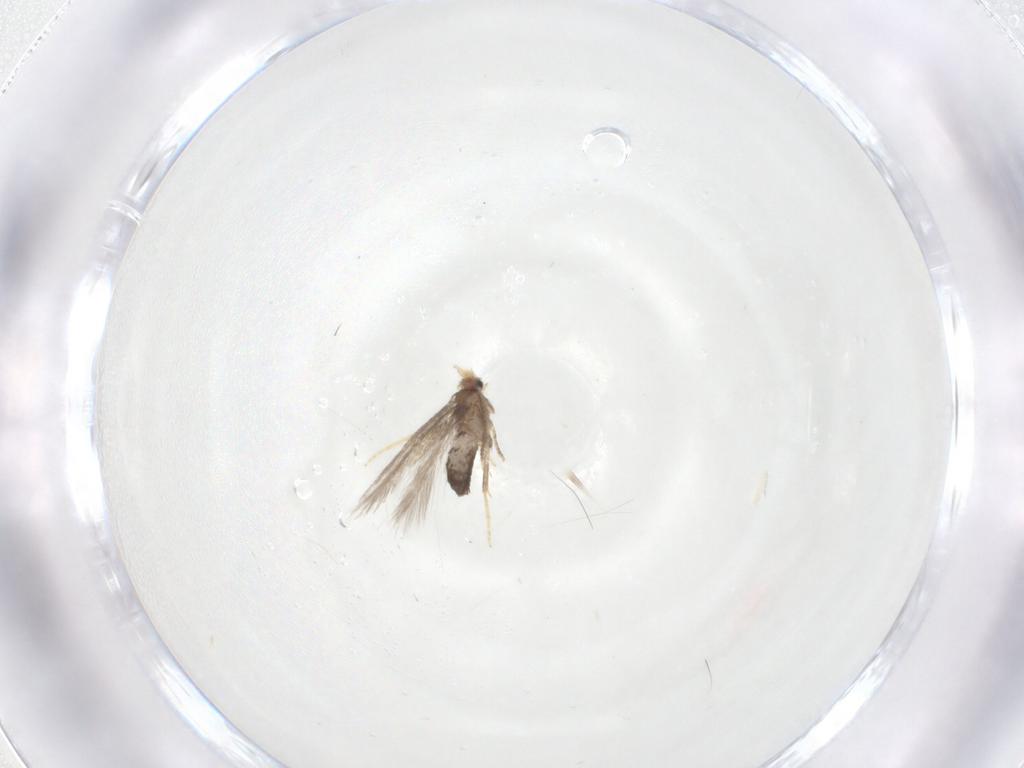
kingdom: Animalia
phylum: Arthropoda
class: Insecta
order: Lepidoptera
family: Nepticulidae
